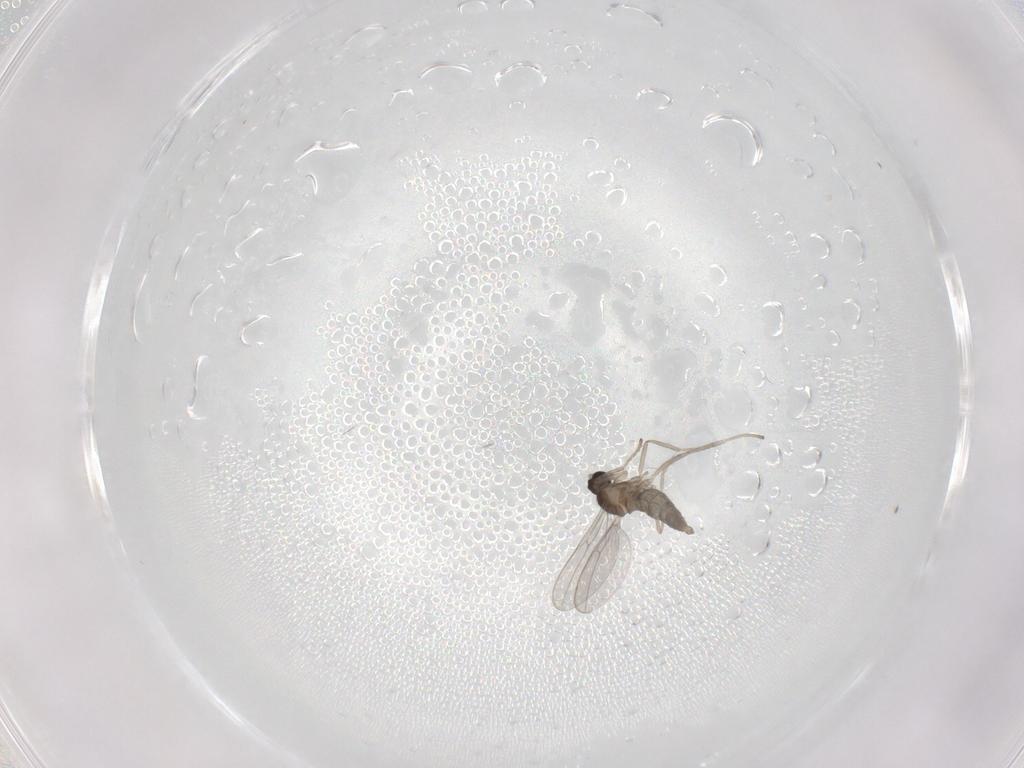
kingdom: Animalia
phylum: Arthropoda
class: Insecta
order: Diptera
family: Cecidomyiidae
